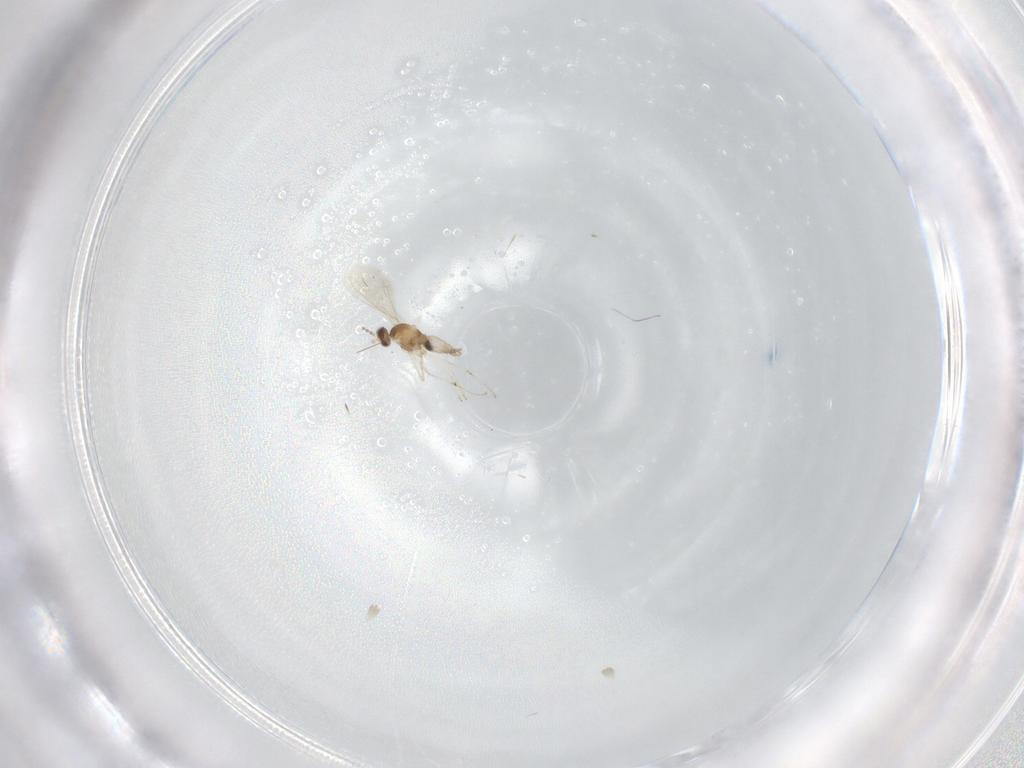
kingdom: Animalia
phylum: Arthropoda
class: Insecta
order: Diptera
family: Cecidomyiidae
